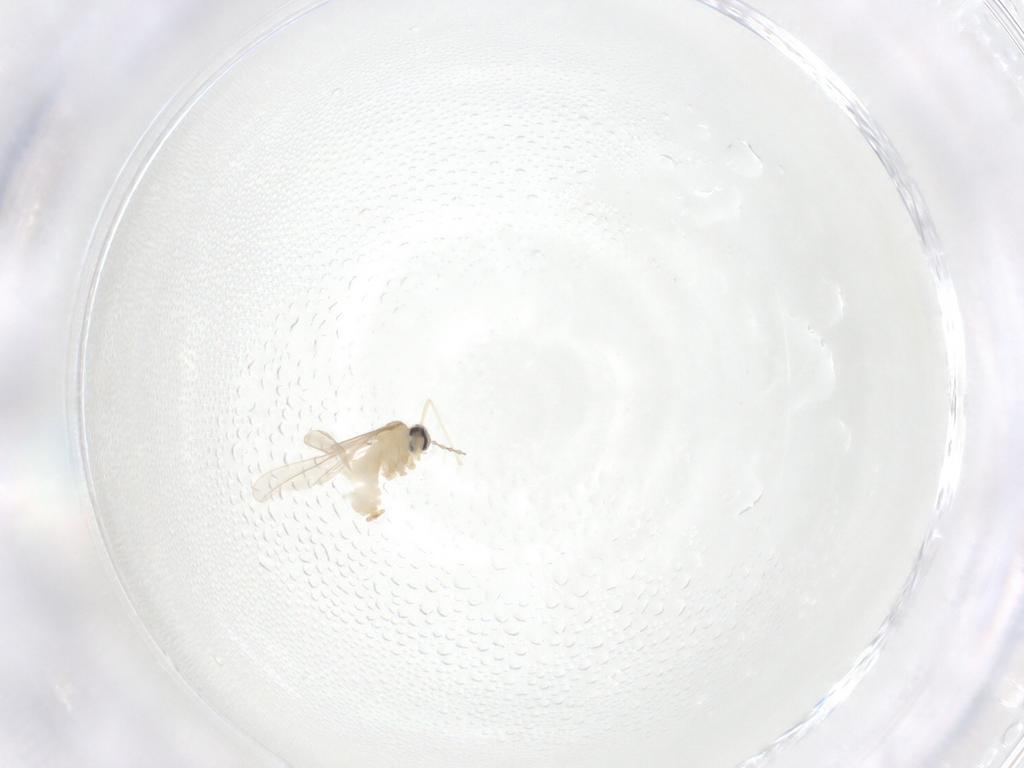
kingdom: Animalia
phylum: Arthropoda
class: Insecta
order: Diptera
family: Cecidomyiidae
